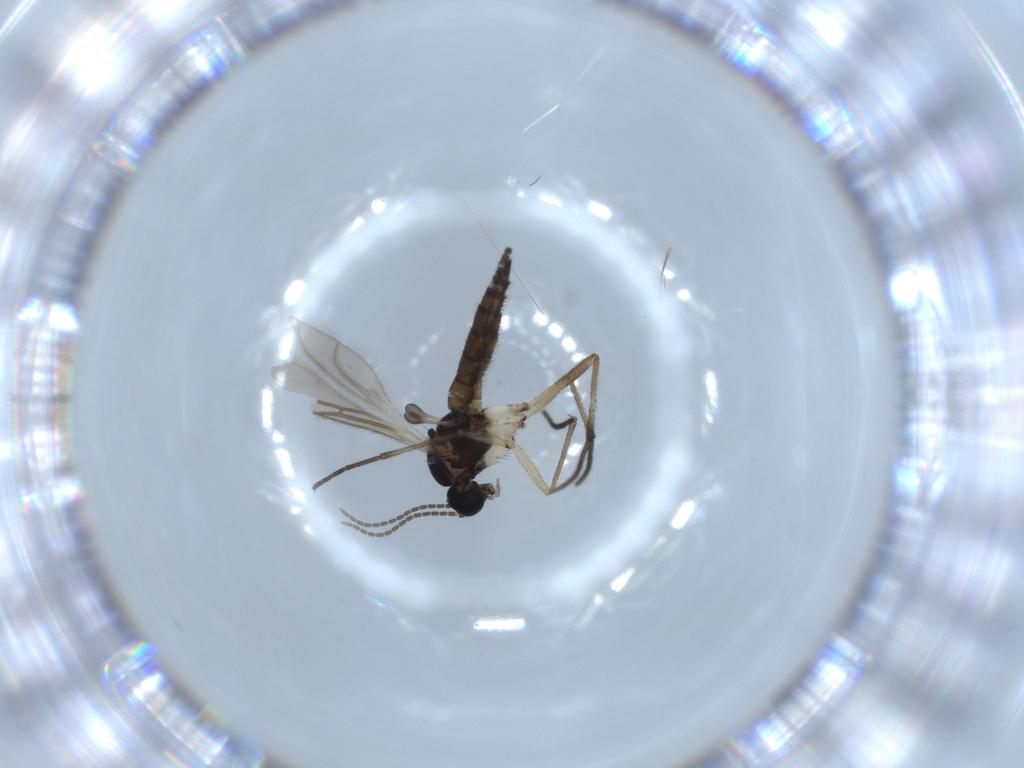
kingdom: Animalia
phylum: Arthropoda
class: Insecta
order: Diptera
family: Sciaridae
